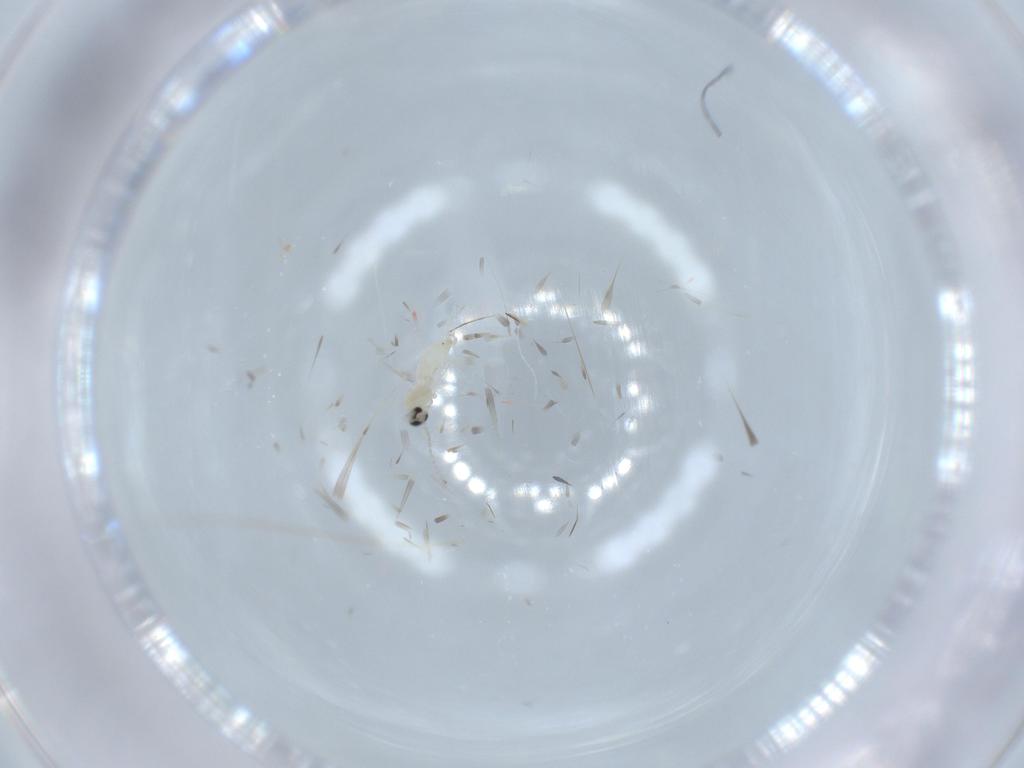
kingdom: Animalia
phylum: Arthropoda
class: Insecta
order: Diptera
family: Cecidomyiidae
